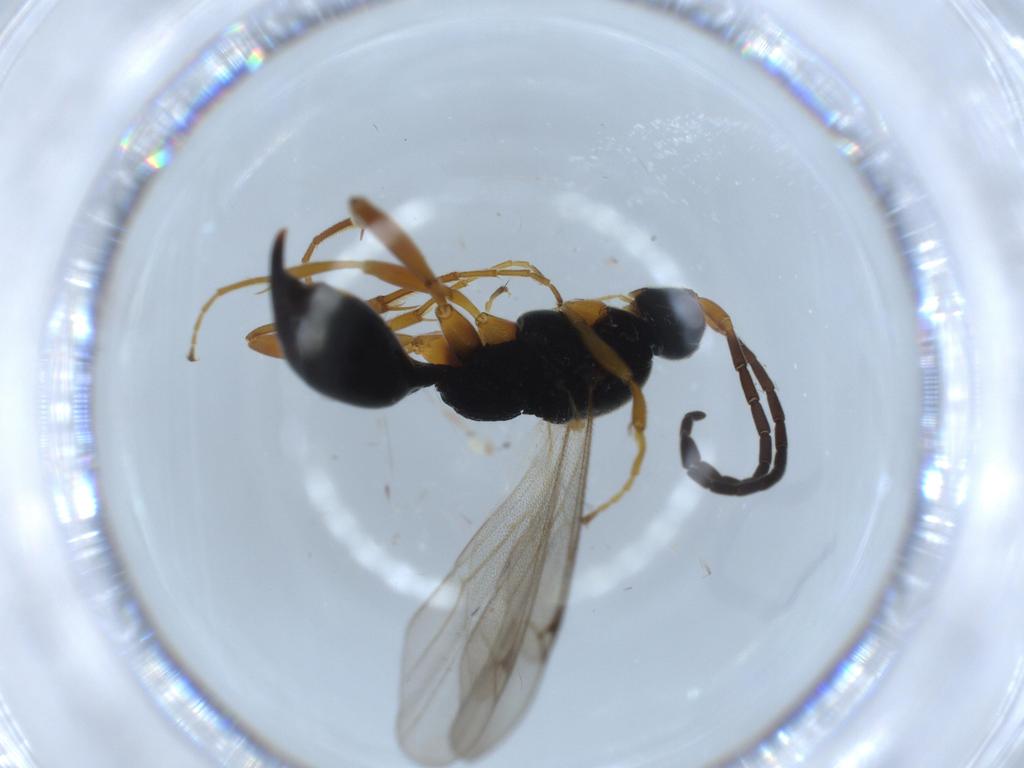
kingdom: Animalia
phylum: Arthropoda
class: Insecta
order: Hymenoptera
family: Proctotrupidae
